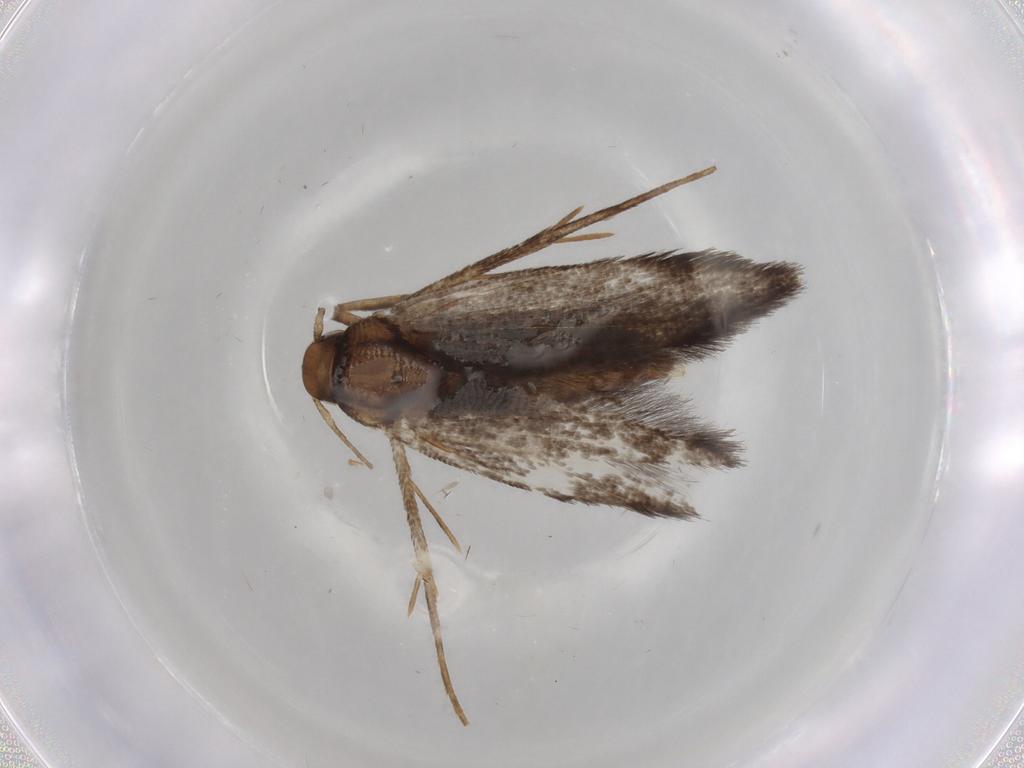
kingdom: Animalia
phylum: Arthropoda
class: Insecta
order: Lepidoptera
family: Cosmopterigidae
